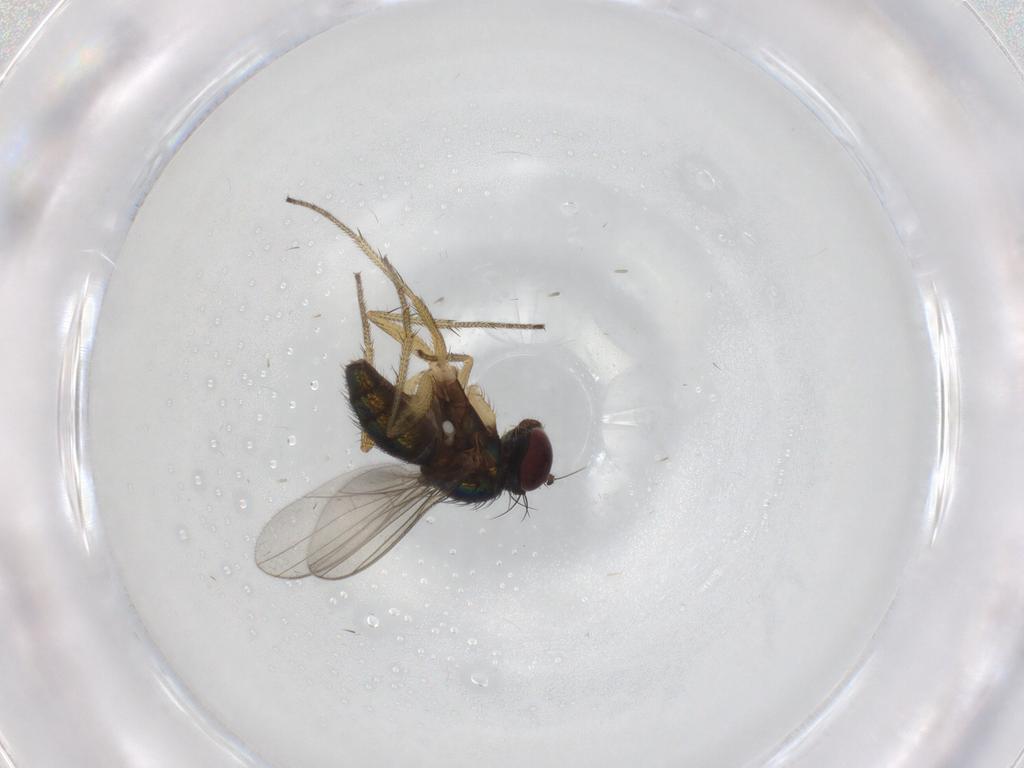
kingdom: Animalia
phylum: Arthropoda
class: Insecta
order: Diptera
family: Dolichopodidae
